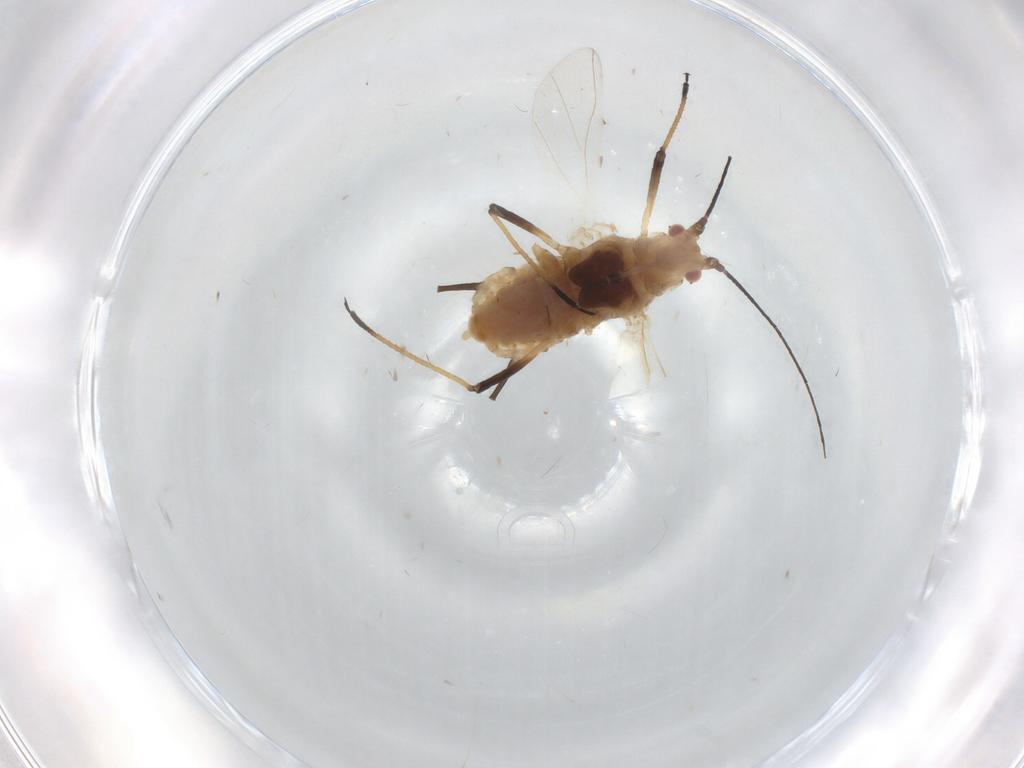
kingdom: Animalia
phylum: Arthropoda
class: Insecta
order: Hemiptera
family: Aphididae
